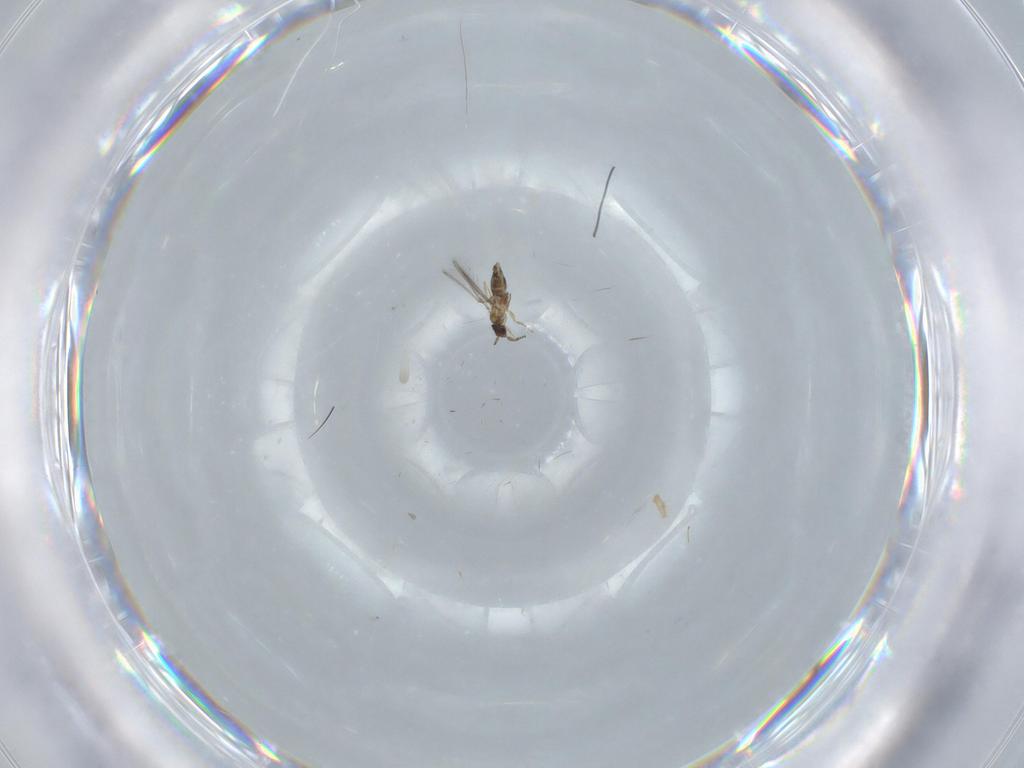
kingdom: Animalia
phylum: Arthropoda
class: Insecta
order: Hymenoptera
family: Mymaridae
